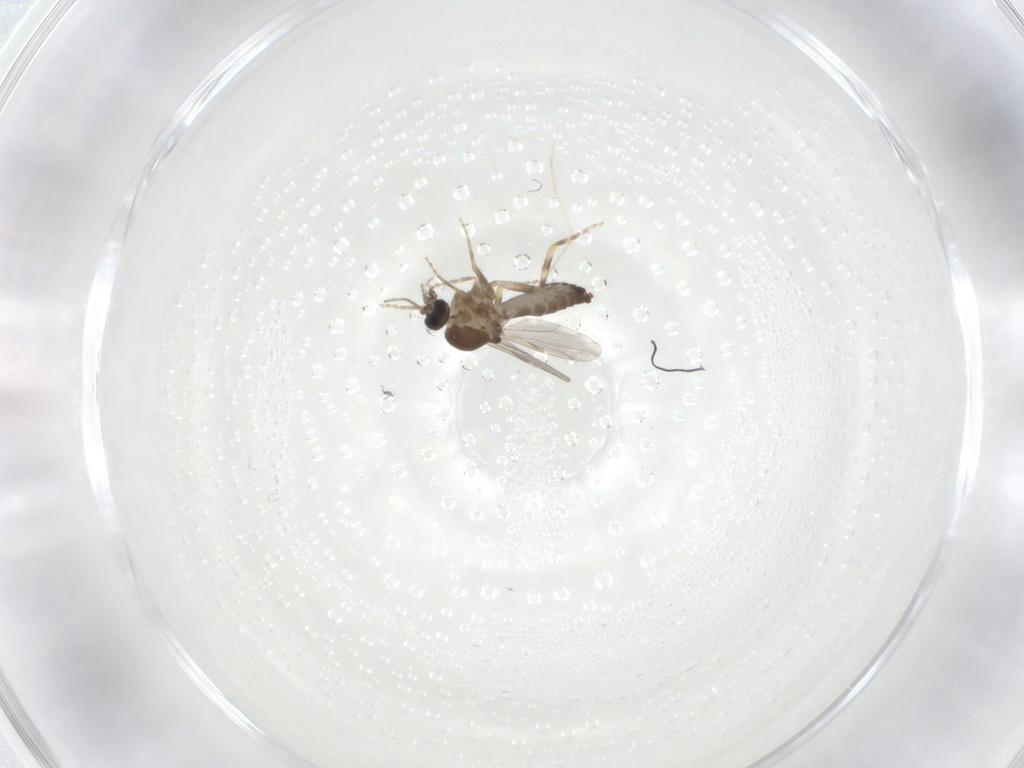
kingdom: Animalia
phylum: Arthropoda
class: Insecta
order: Diptera
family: Ceratopogonidae
